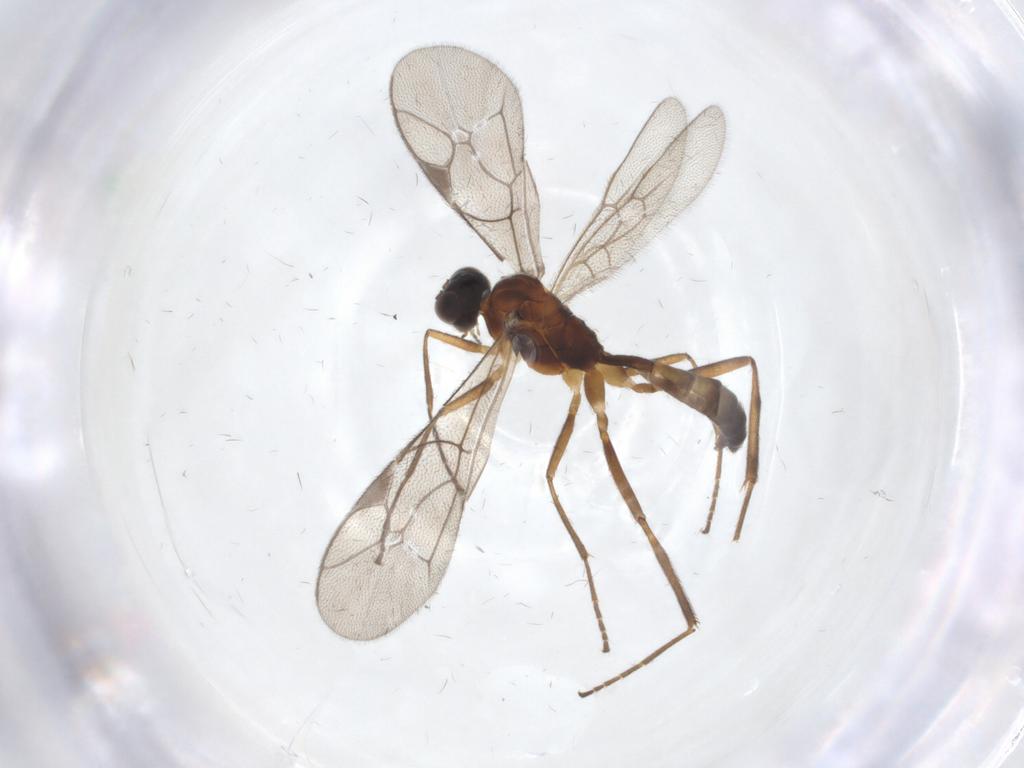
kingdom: Animalia
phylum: Arthropoda
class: Insecta
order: Hymenoptera
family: Ichneumonidae
